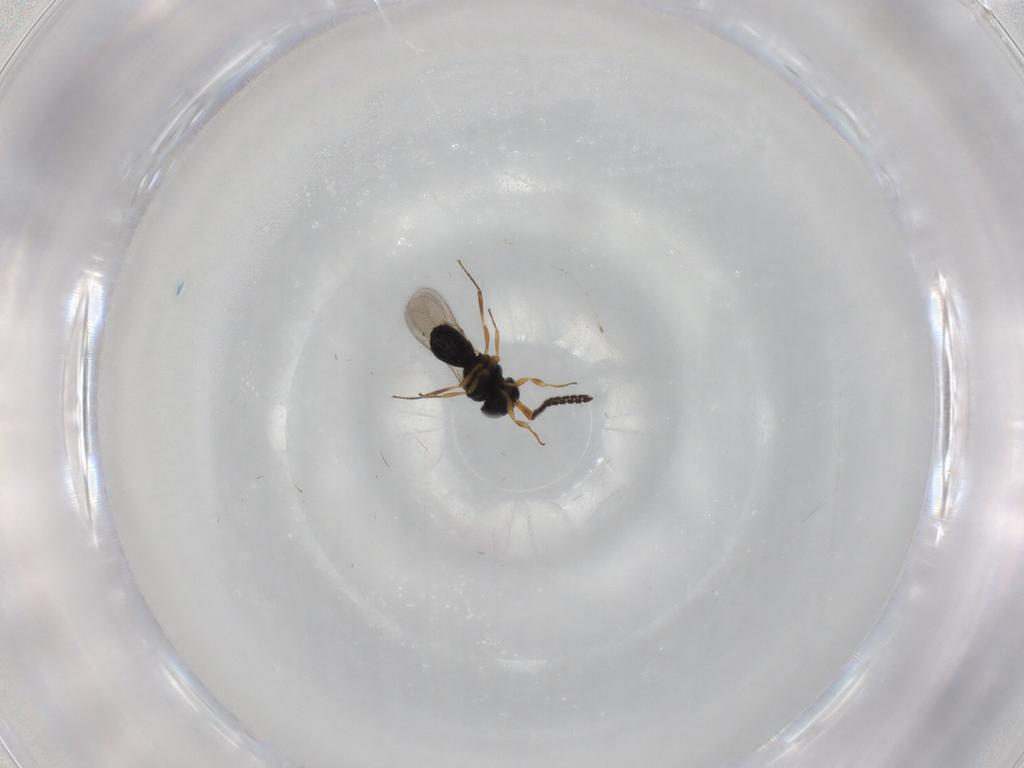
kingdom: Animalia
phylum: Arthropoda
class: Insecta
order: Hymenoptera
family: Scelionidae
